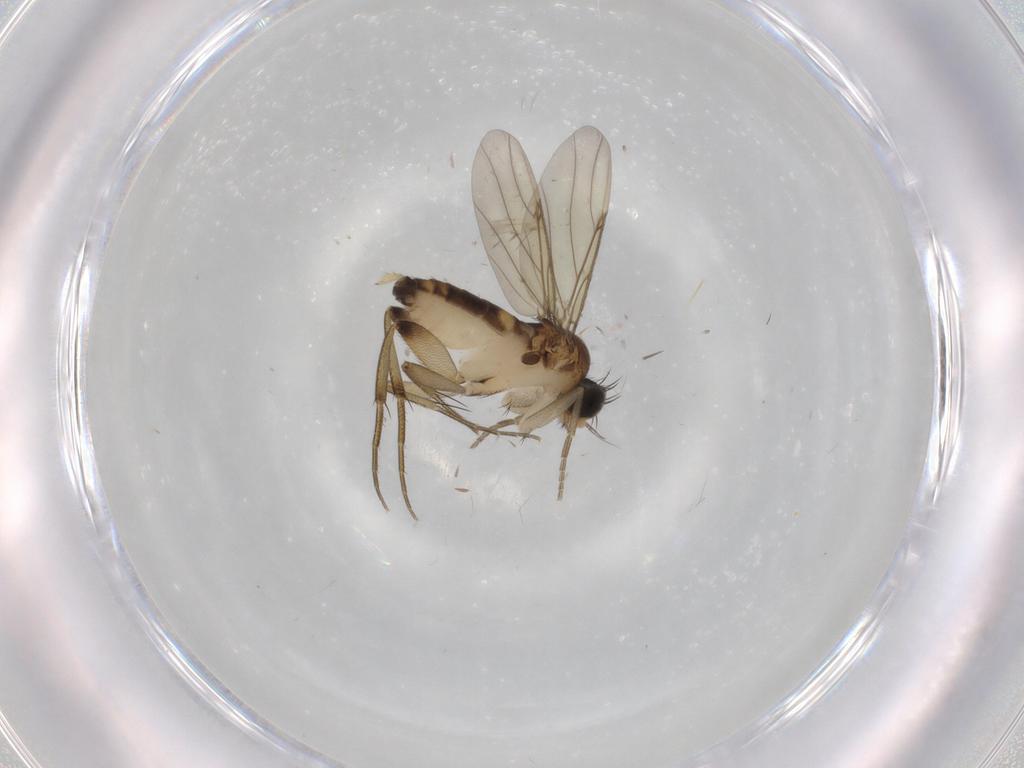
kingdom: Animalia
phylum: Arthropoda
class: Insecta
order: Diptera
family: Phoridae
